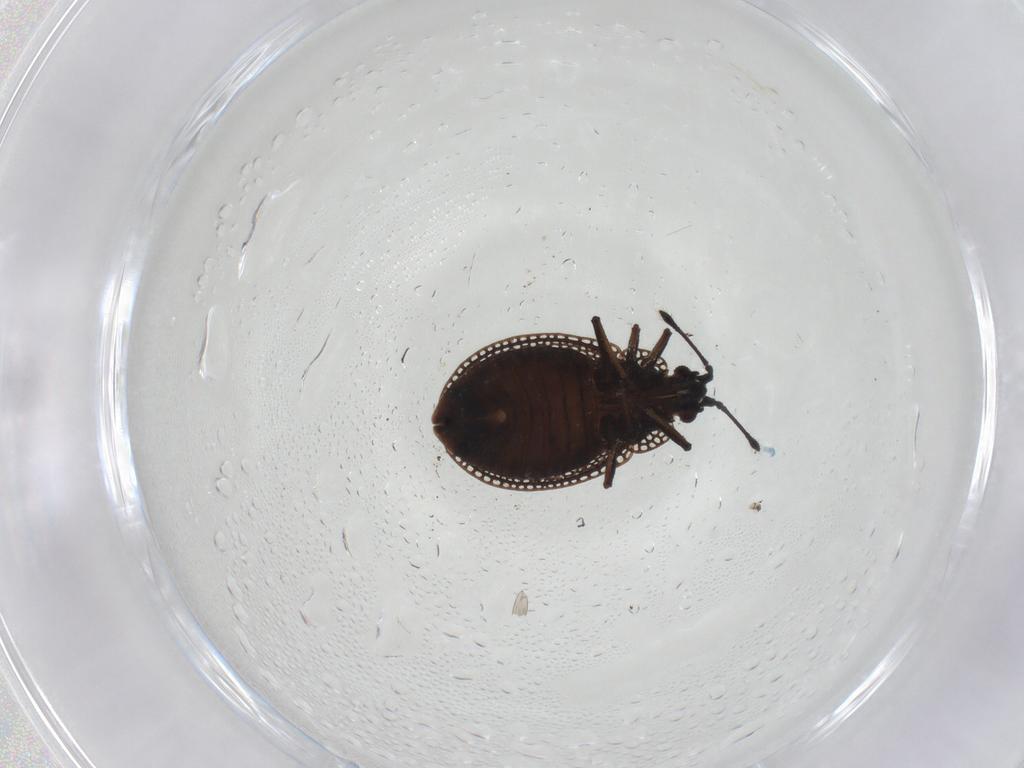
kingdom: Animalia
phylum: Arthropoda
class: Insecta
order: Hemiptera
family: Tingidae
